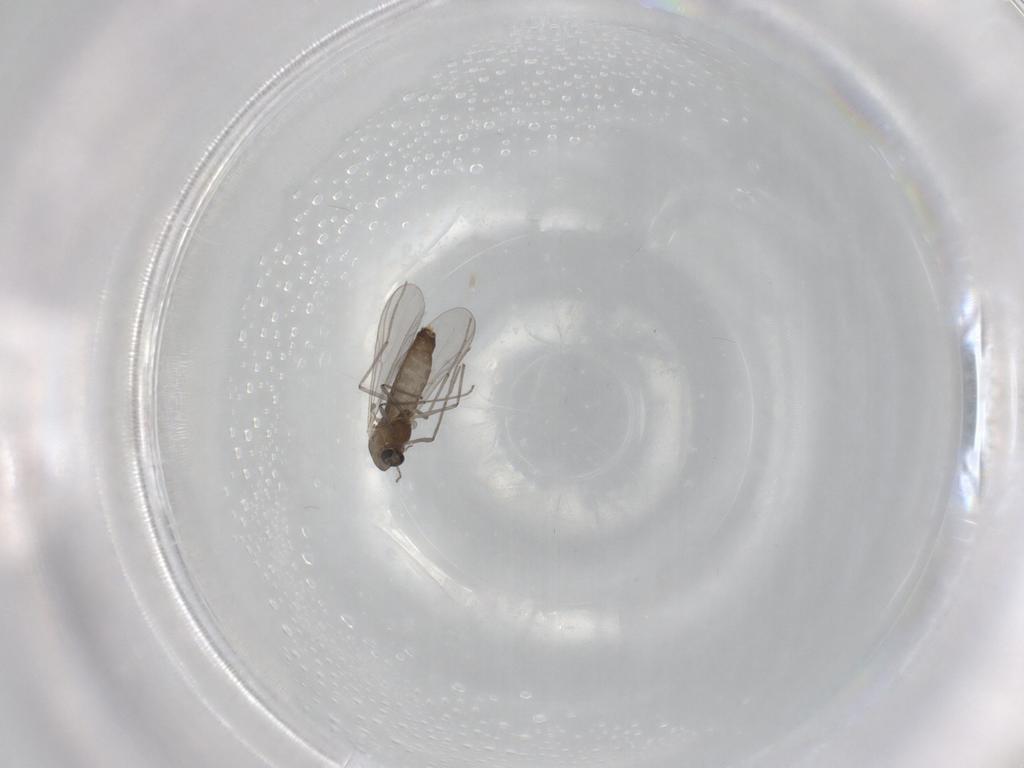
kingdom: Animalia
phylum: Arthropoda
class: Insecta
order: Diptera
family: Chironomidae
